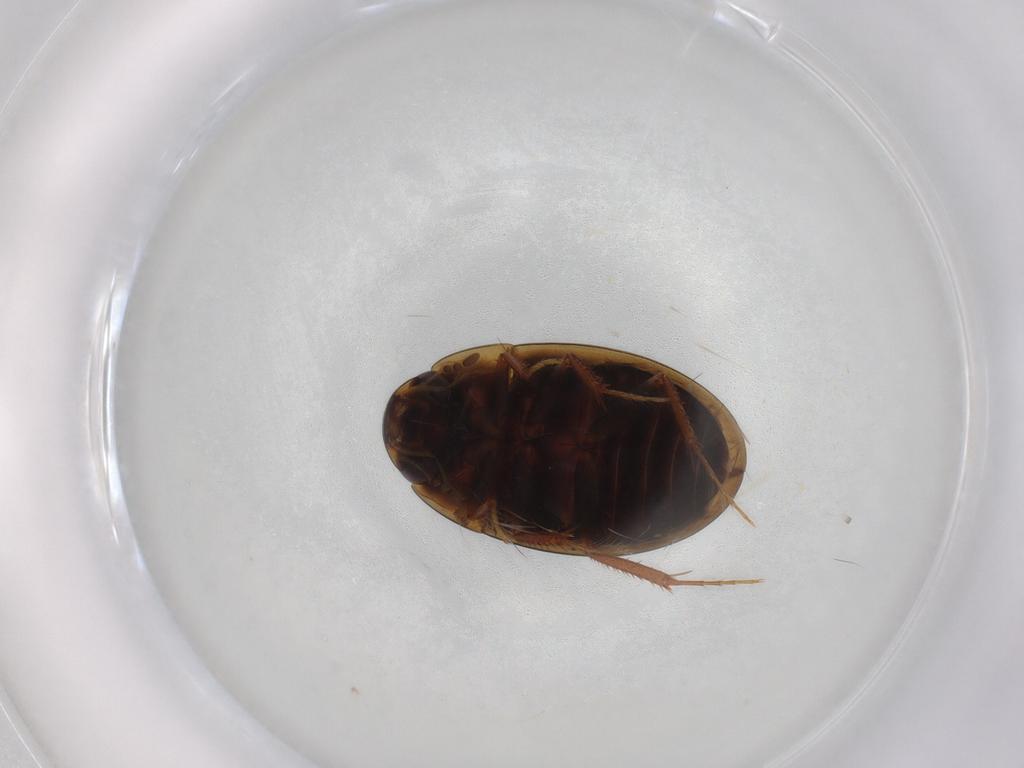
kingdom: Animalia
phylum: Arthropoda
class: Insecta
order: Coleoptera
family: Hydrophilidae
